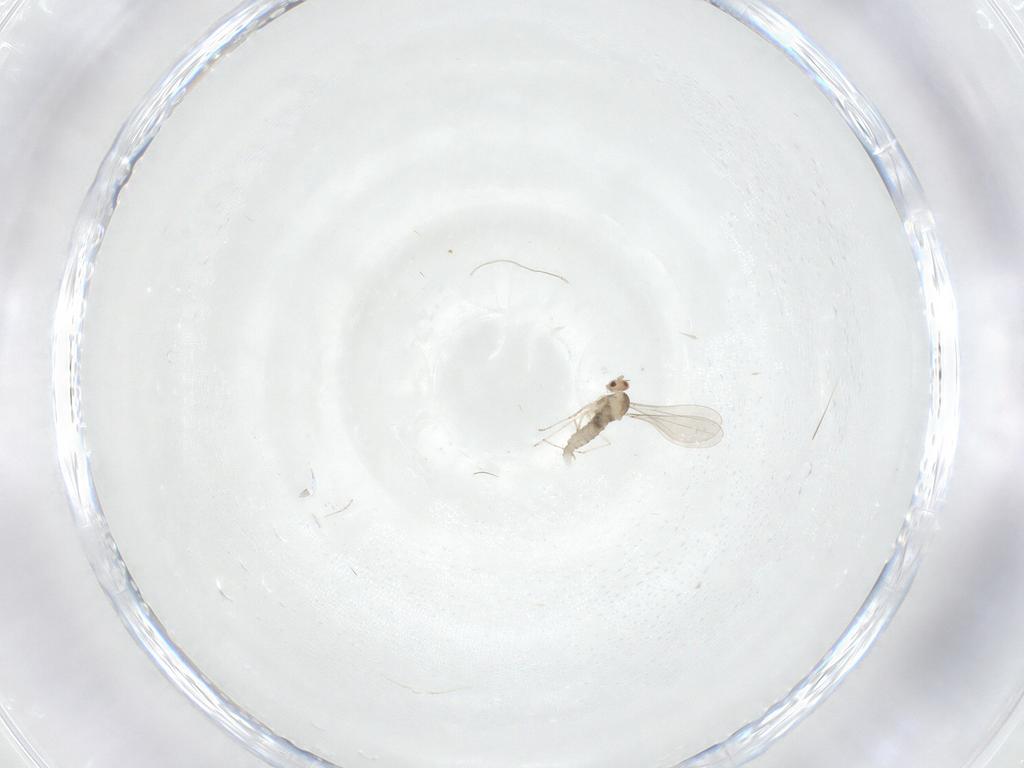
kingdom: Animalia
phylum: Arthropoda
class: Insecta
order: Diptera
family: Cecidomyiidae
